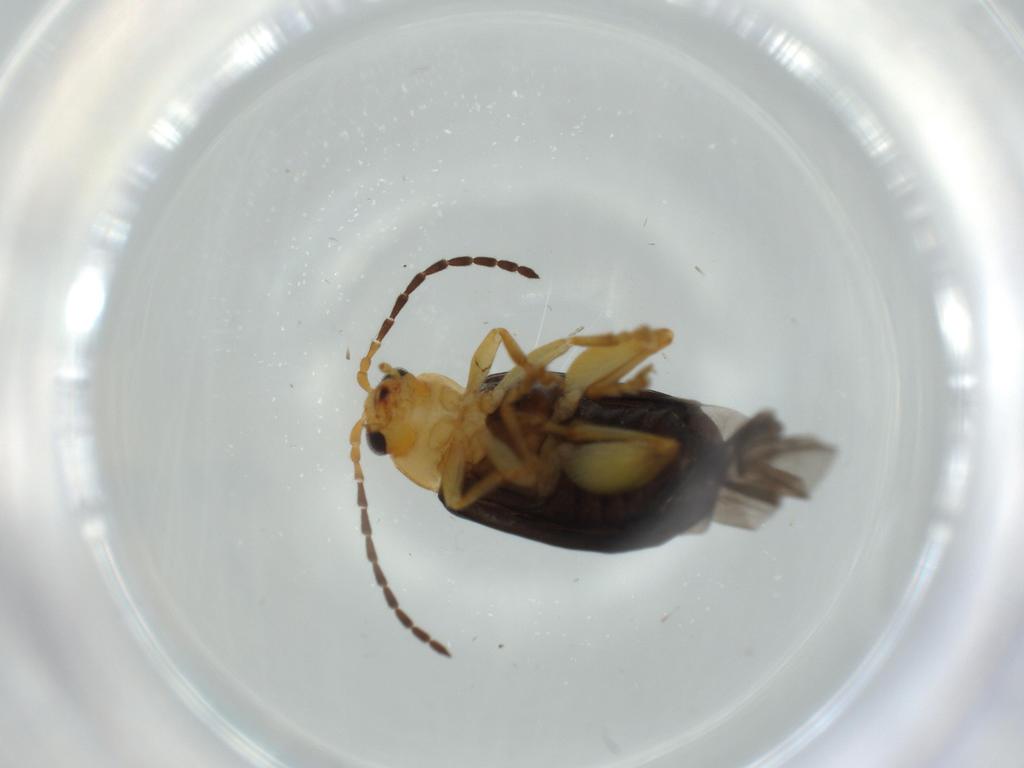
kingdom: Animalia
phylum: Arthropoda
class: Insecta
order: Coleoptera
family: Chrysomelidae
